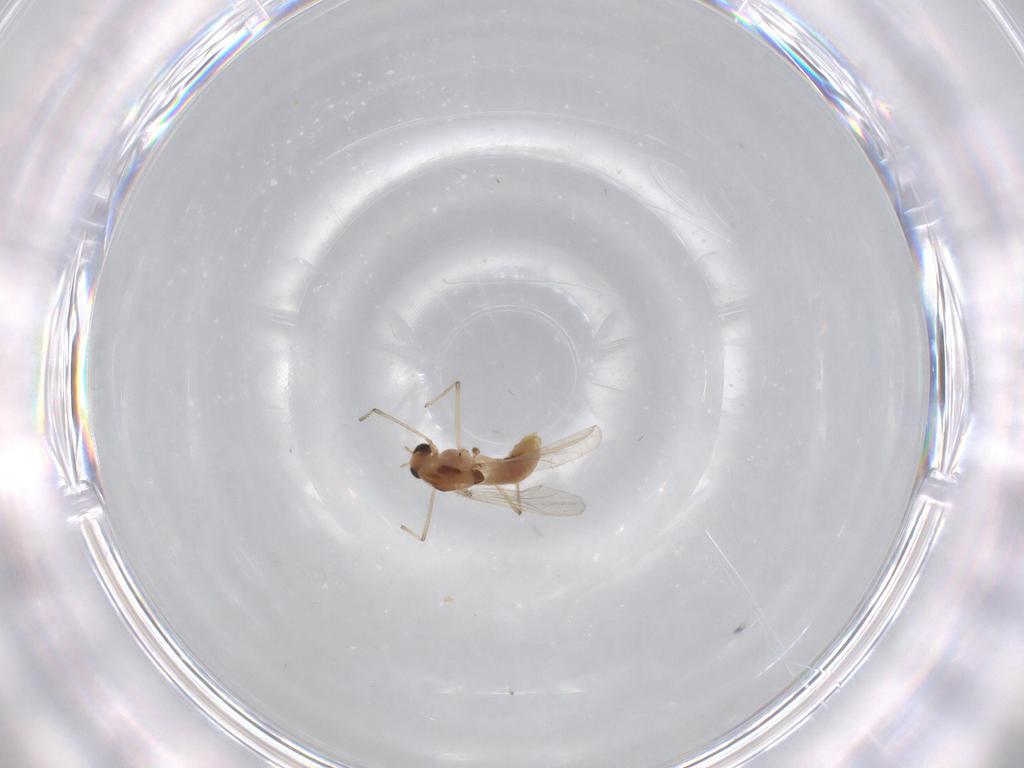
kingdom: Animalia
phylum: Arthropoda
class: Insecta
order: Diptera
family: Chironomidae
